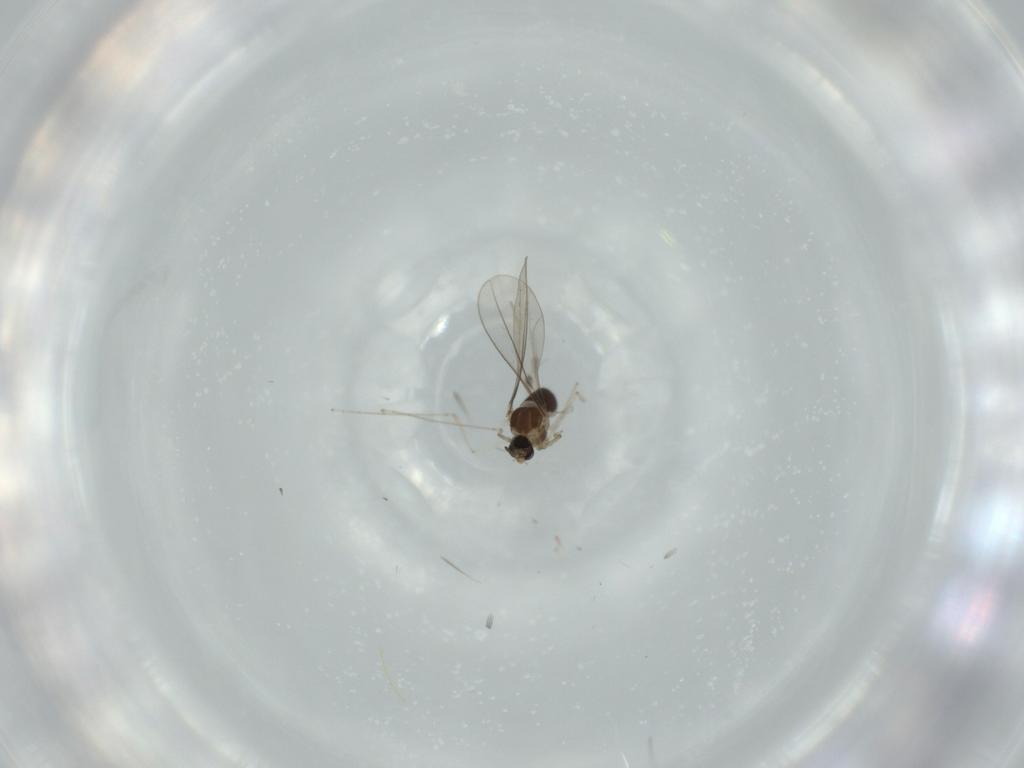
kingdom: Animalia
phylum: Arthropoda
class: Insecta
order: Diptera
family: Cecidomyiidae
